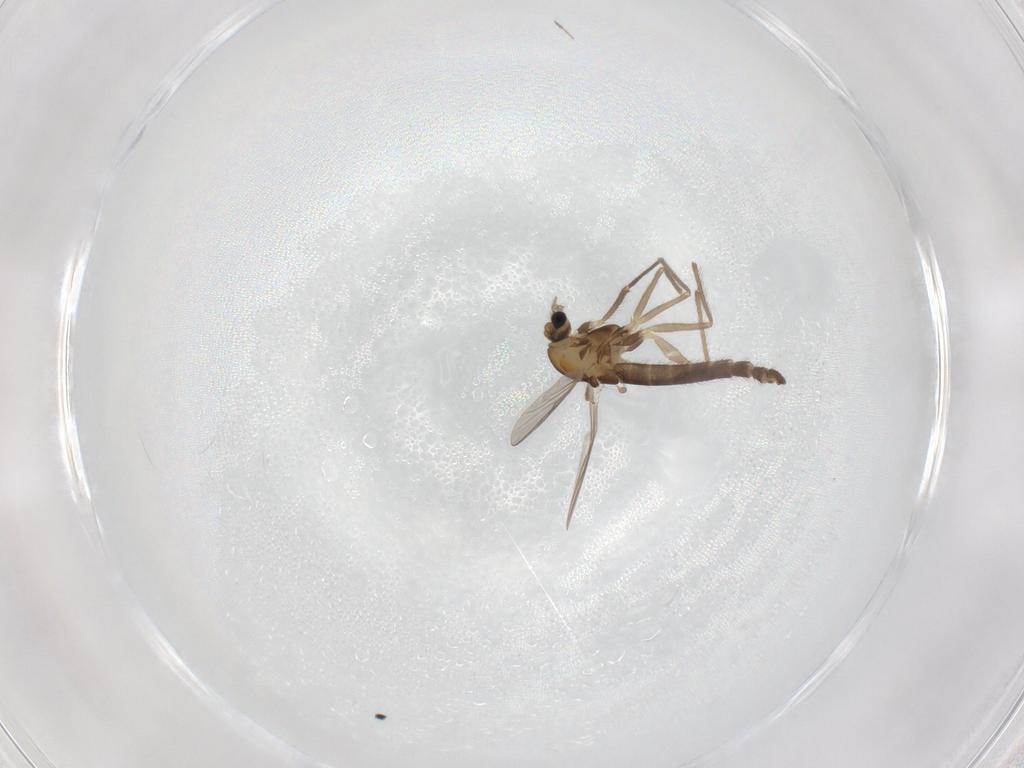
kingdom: Animalia
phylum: Arthropoda
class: Insecta
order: Diptera
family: Chironomidae
